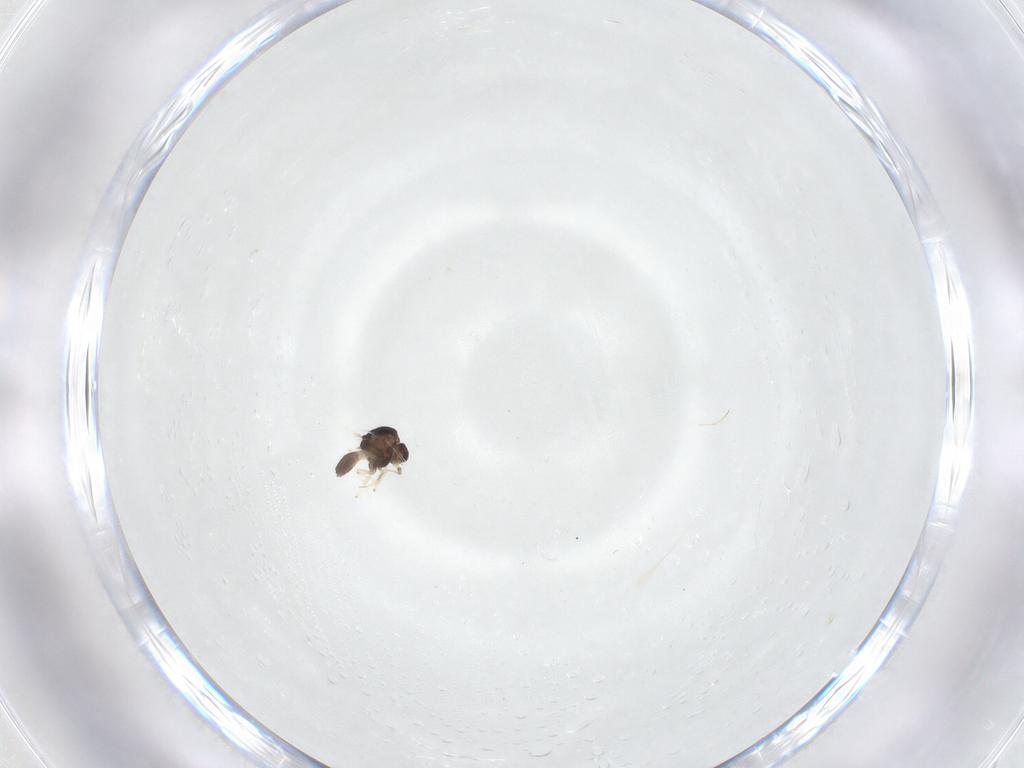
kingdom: Animalia
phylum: Arthropoda
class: Insecta
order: Diptera
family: Chironomidae
